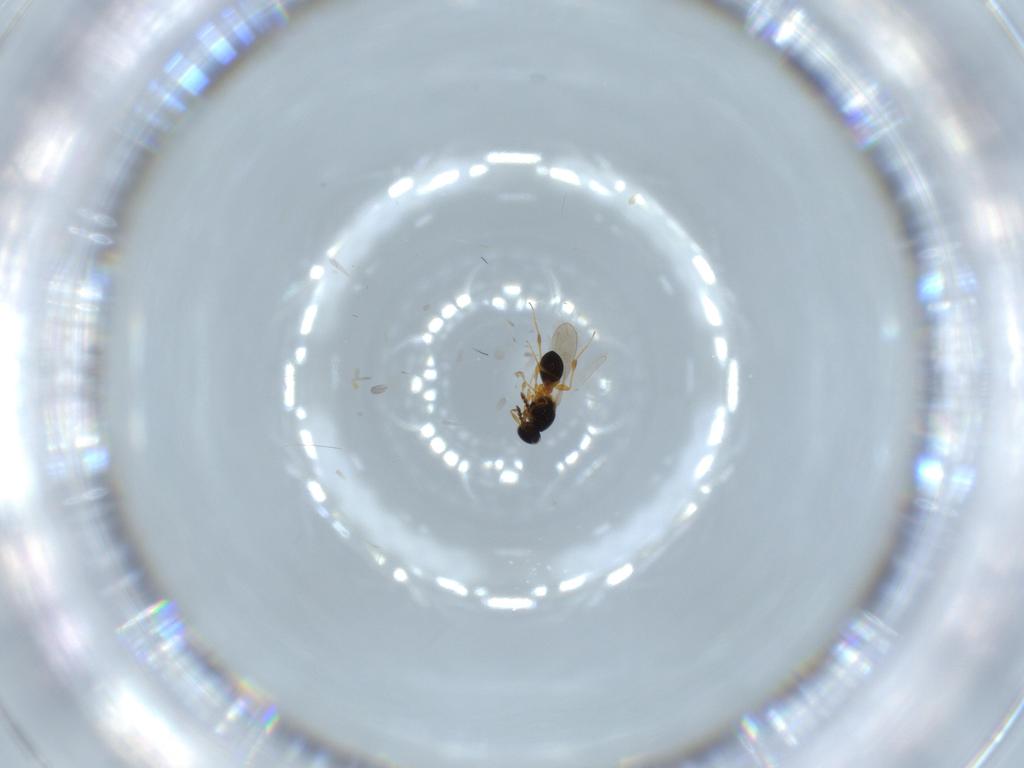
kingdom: Animalia
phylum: Arthropoda
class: Insecta
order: Hymenoptera
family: Platygastridae
